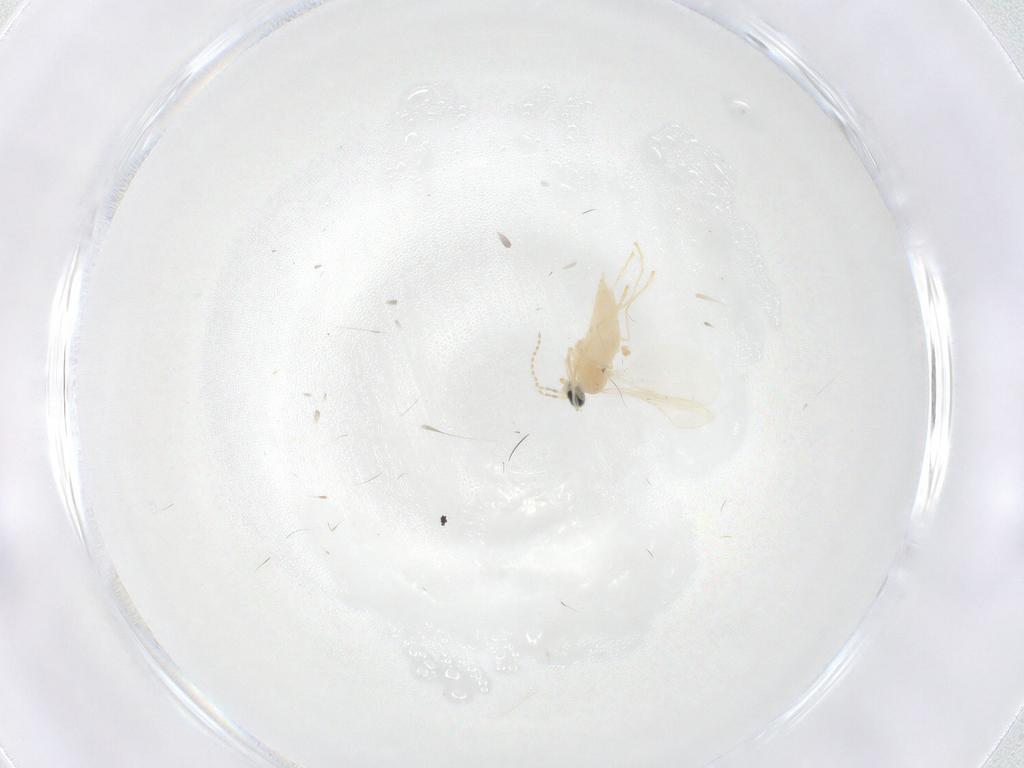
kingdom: Animalia
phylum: Arthropoda
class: Insecta
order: Diptera
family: Cecidomyiidae
